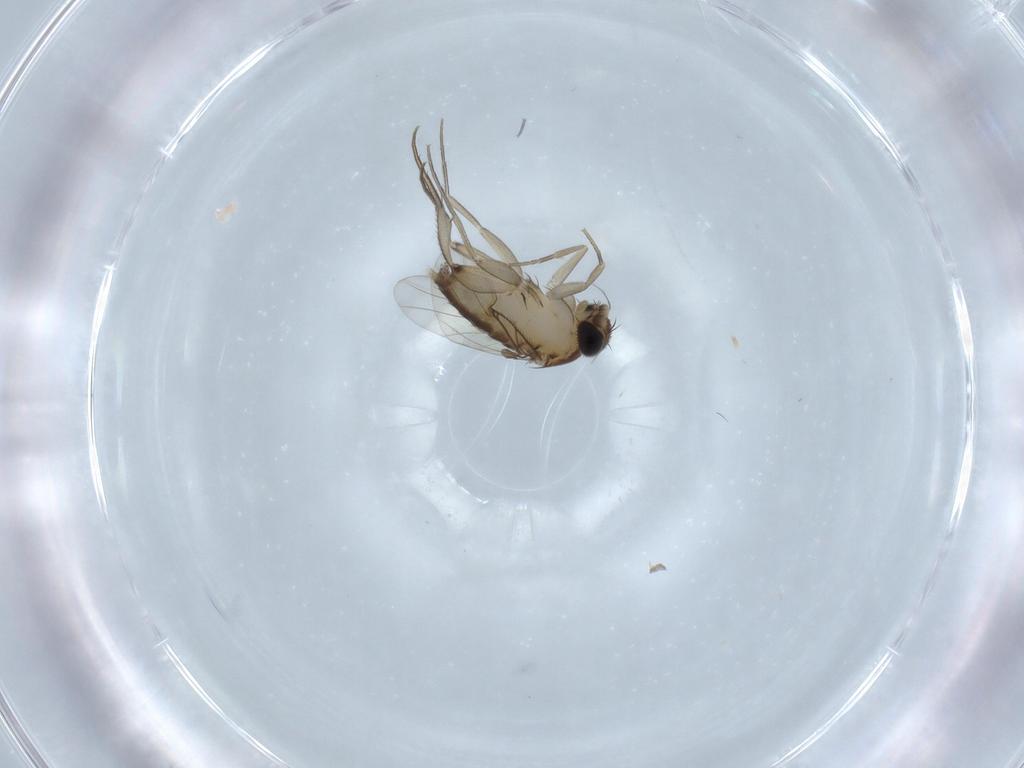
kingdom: Animalia
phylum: Arthropoda
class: Insecta
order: Diptera
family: Phoridae
